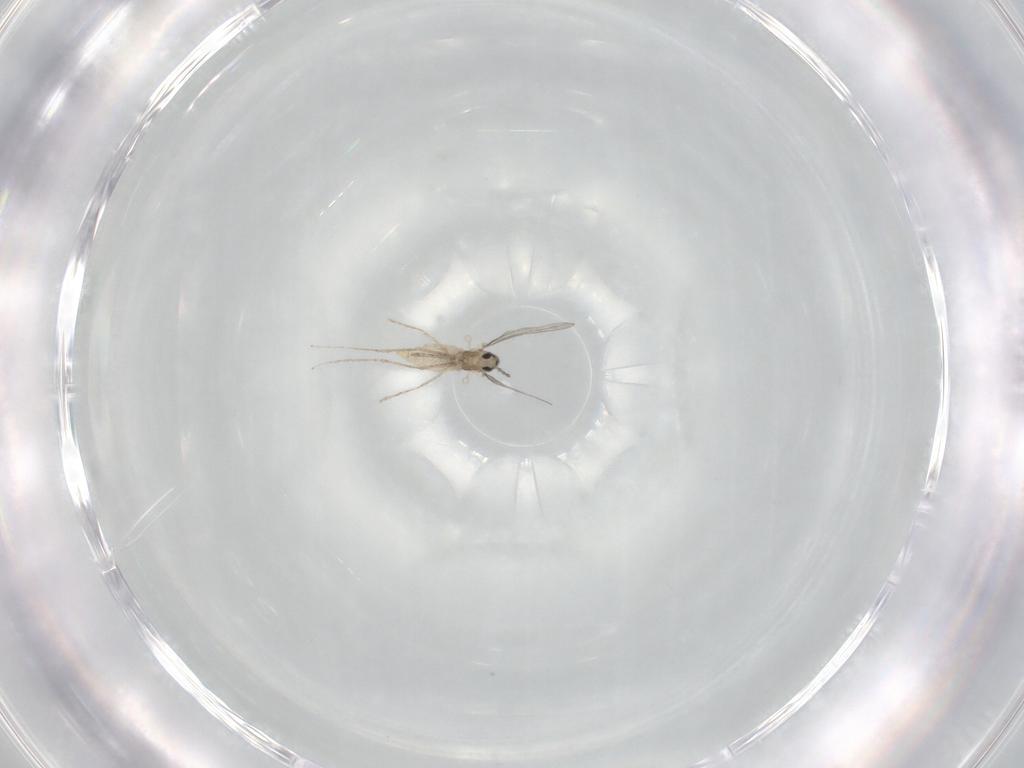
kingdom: Animalia
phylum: Arthropoda
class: Insecta
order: Diptera
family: Cecidomyiidae
